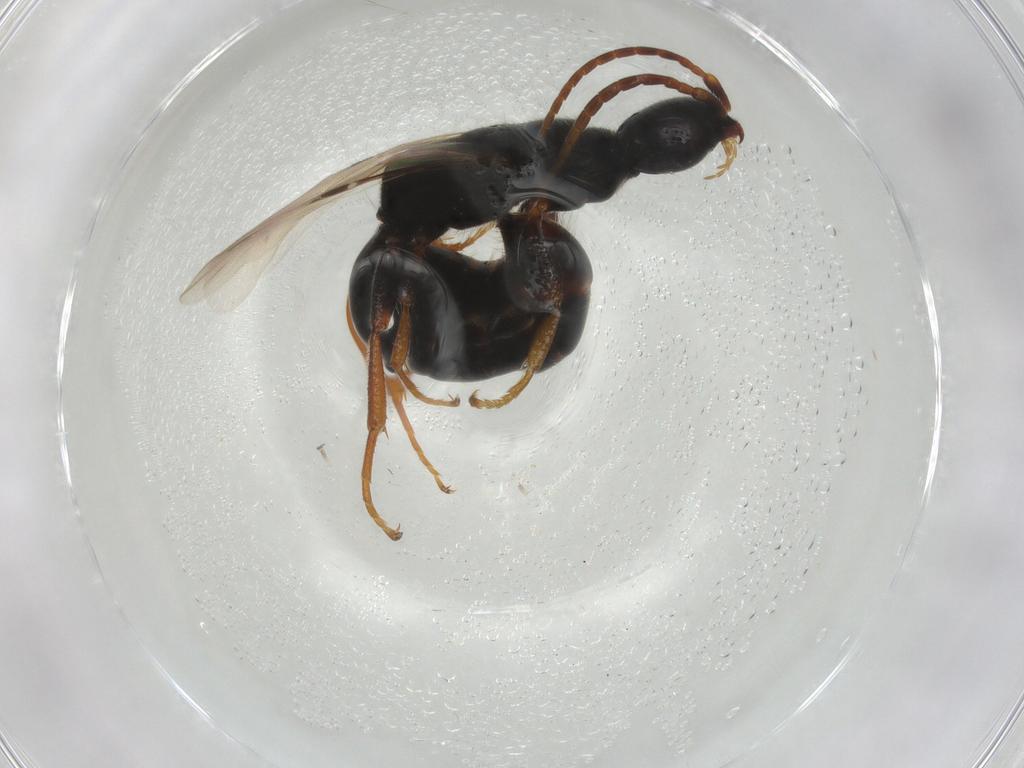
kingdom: Animalia
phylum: Arthropoda
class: Insecta
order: Hymenoptera
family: Bethylidae
